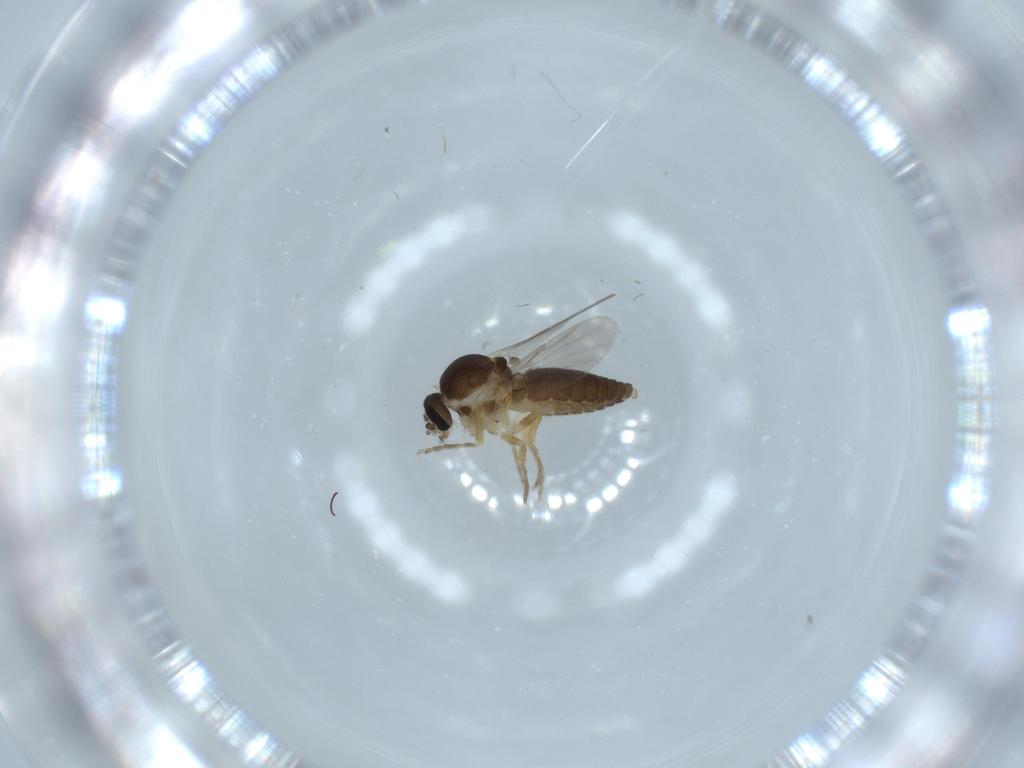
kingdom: Animalia
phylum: Arthropoda
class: Insecta
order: Diptera
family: Ceratopogonidae
